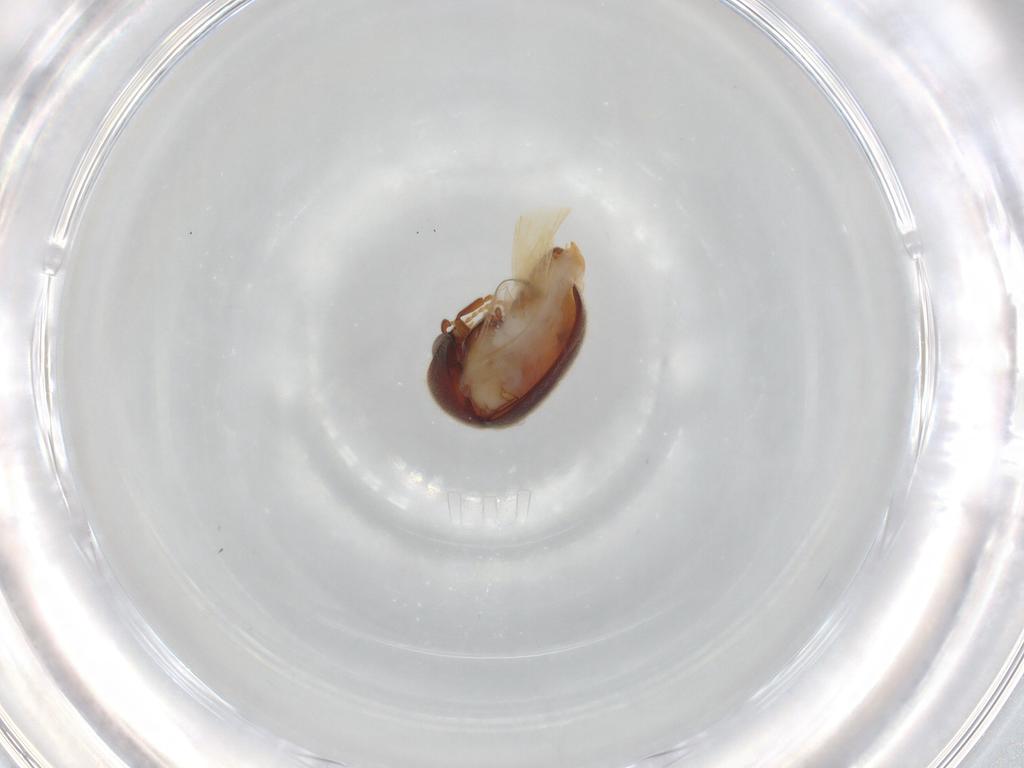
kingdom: Animalia
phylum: Arthropoda
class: Insecta
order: Coleoptera
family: Ptinidae
